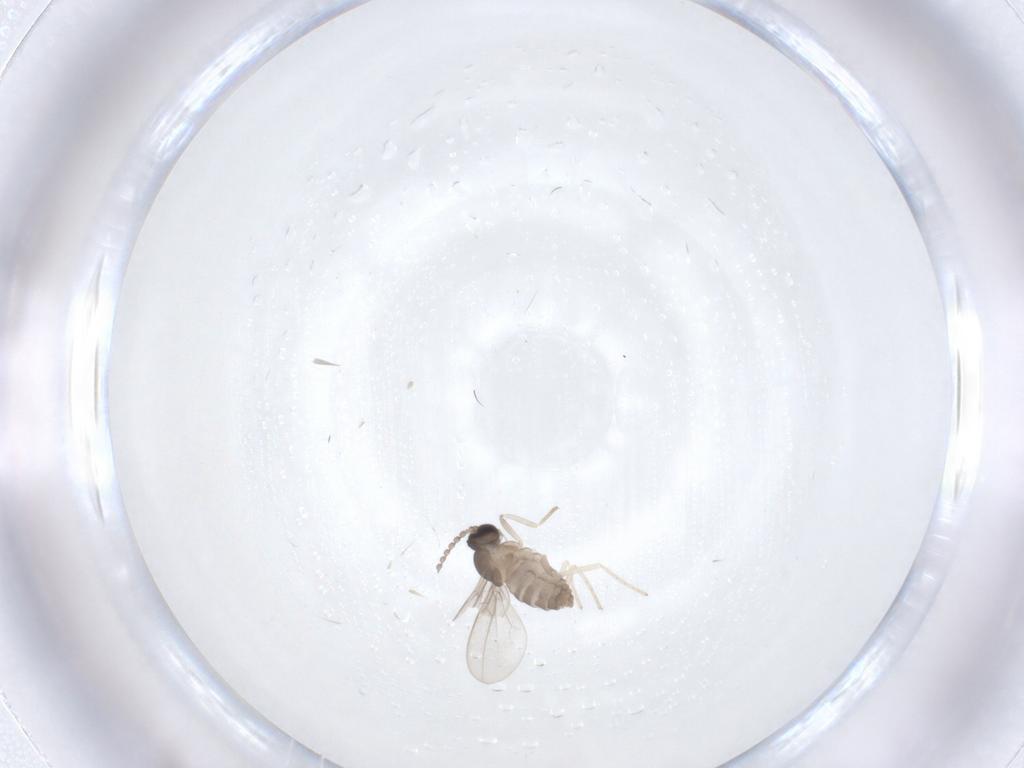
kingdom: Animalia
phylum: Arthropoda
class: Insecta
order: Diptera
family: Cecidomyiidae
